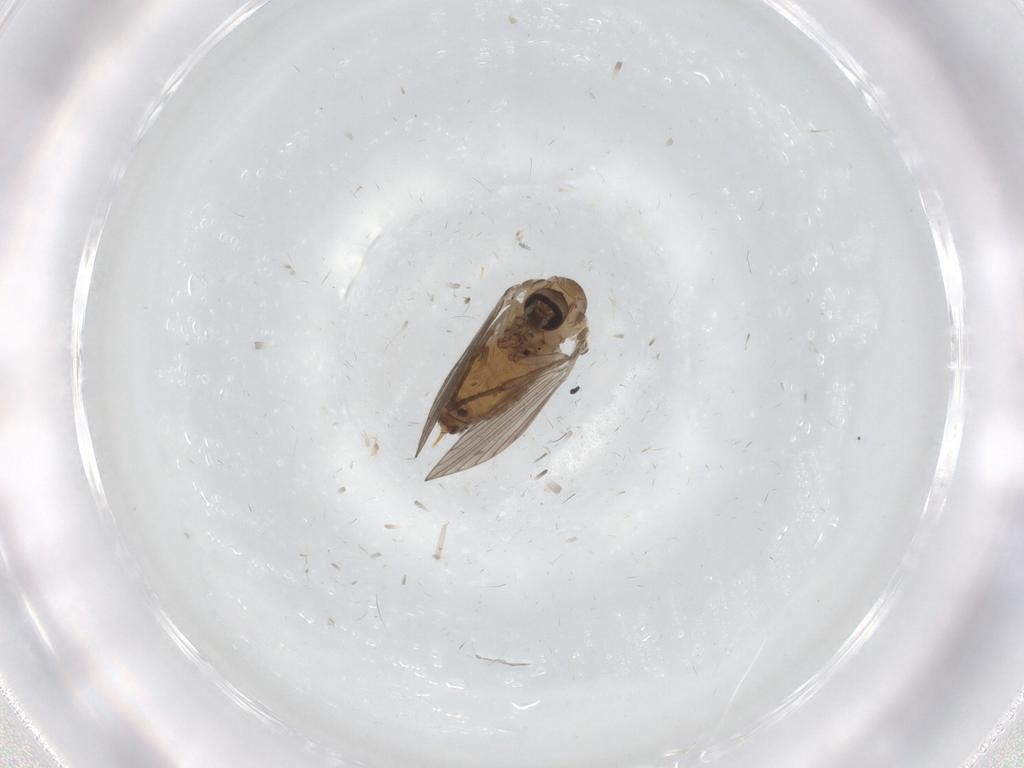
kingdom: Animalia
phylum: Arthropoda
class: Insecta
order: Diptera
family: Psychodidae
